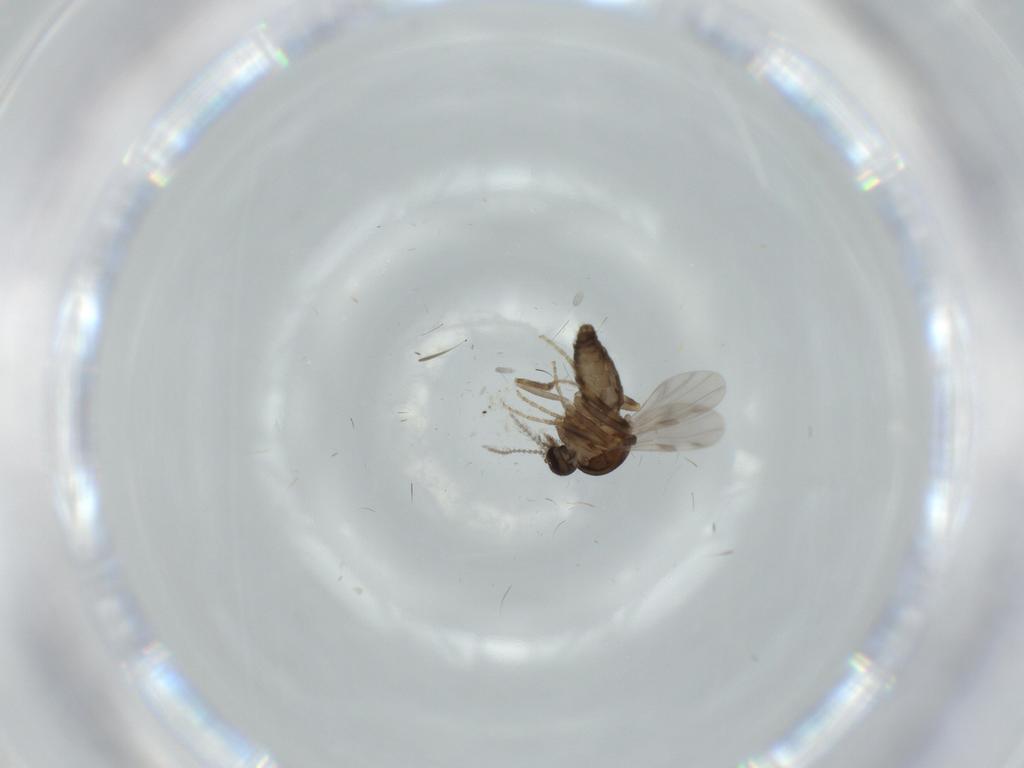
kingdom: Animalia
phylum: Arthropoda
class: Insecta
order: Diptera
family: Ceratopogonidae
